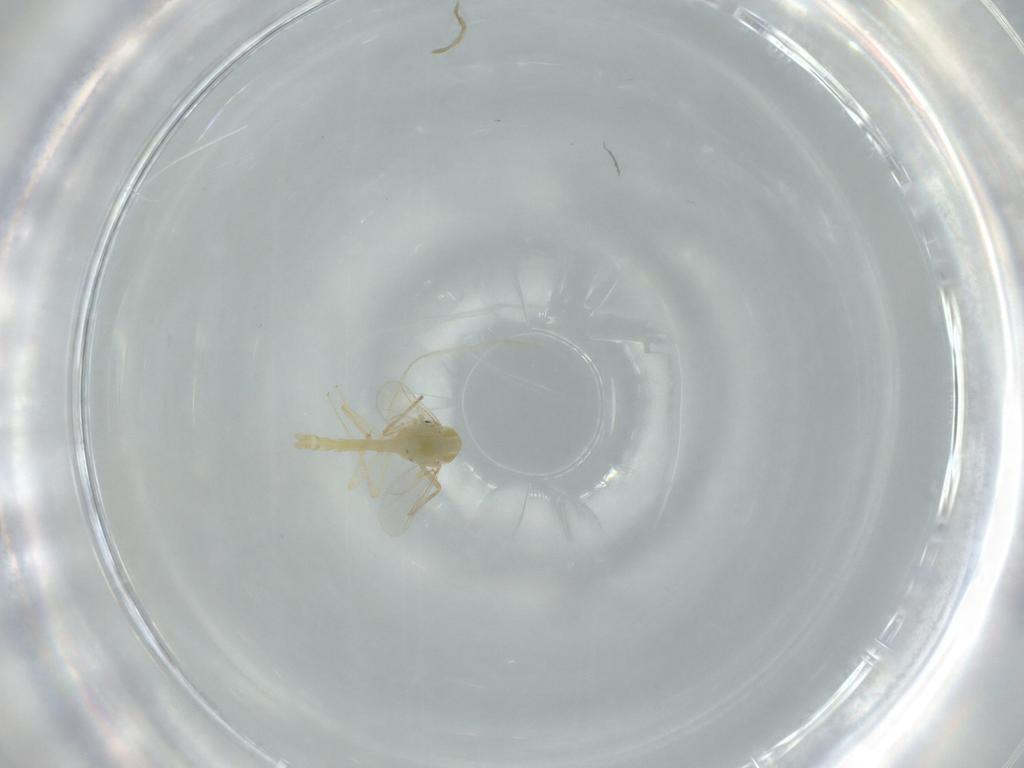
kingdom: Animalia
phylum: Arthropoda
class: Insecta
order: Diptera
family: Chironomidae
